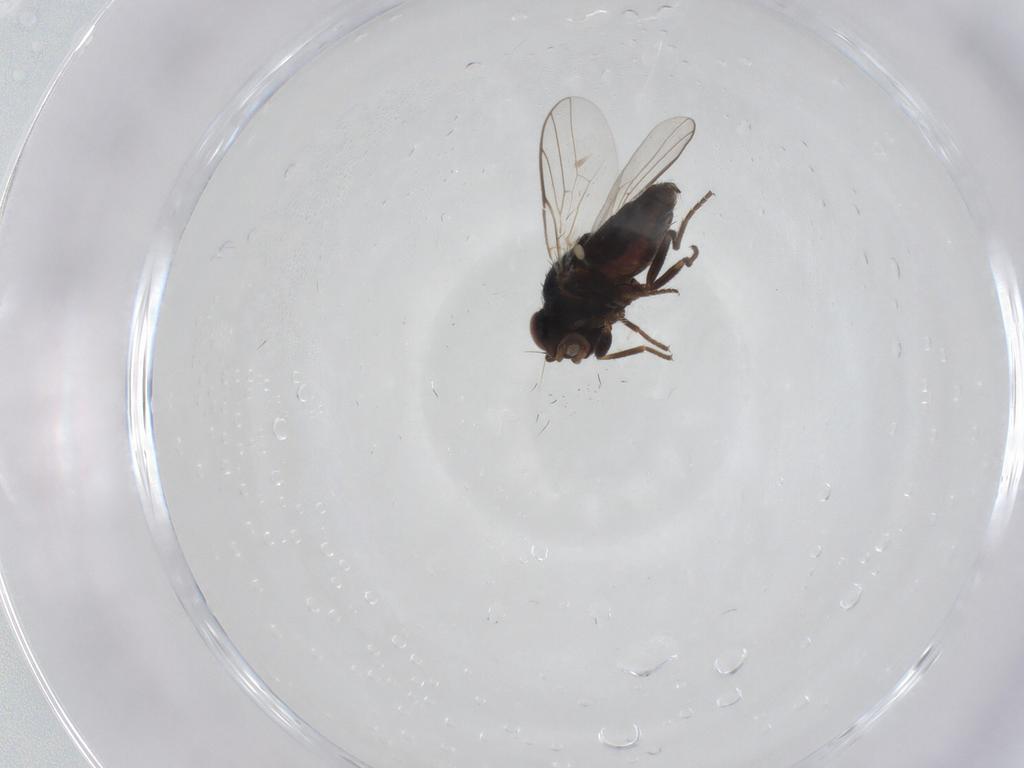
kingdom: Animalia
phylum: Arthropoda
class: Insecta
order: Diptera
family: Chloropidae
